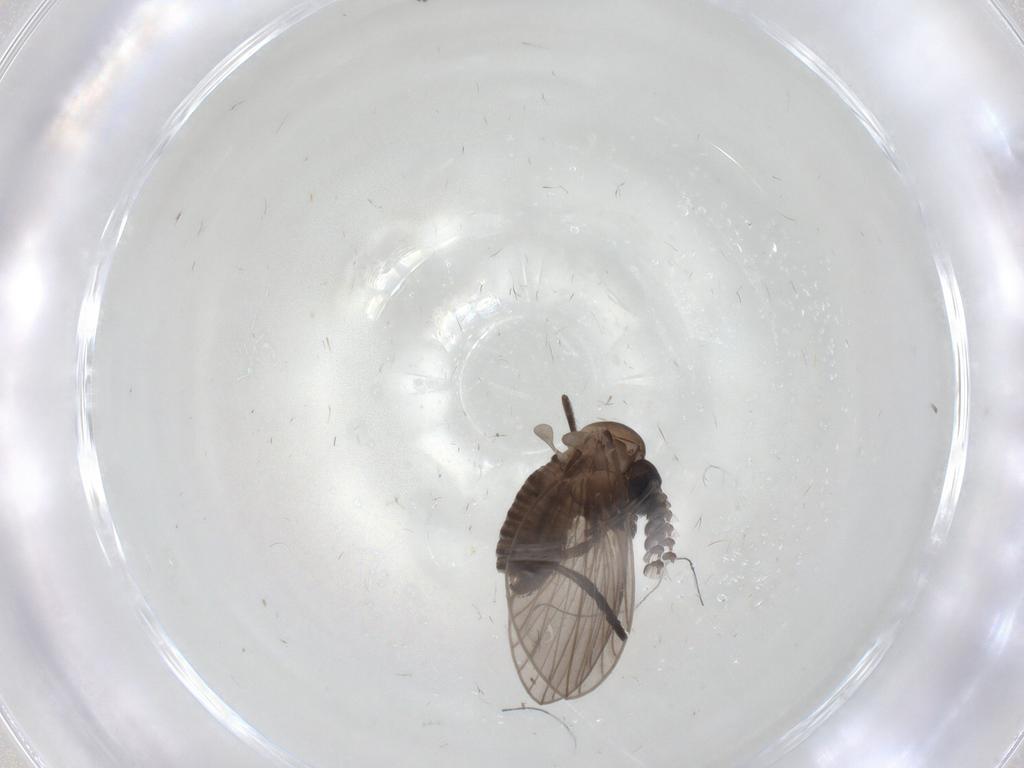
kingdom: Animalia
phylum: Arthropoda
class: Insecta
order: Diptera
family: Psychodidae
